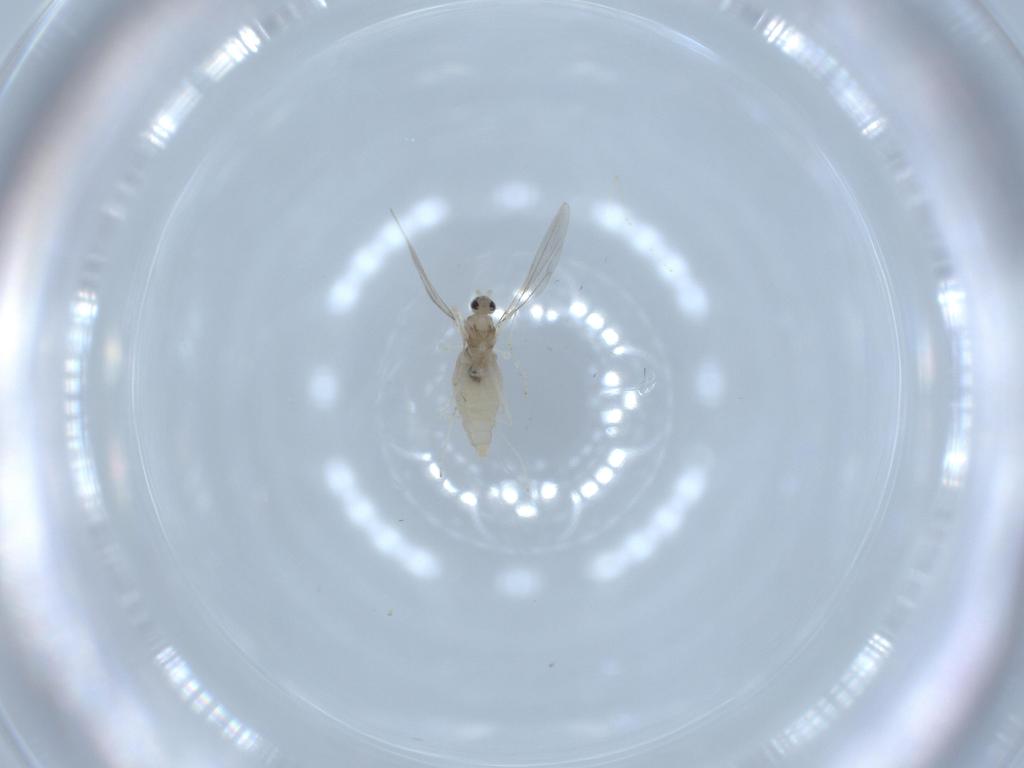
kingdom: Animalia
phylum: Arthropoda
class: Insecta
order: Diptera
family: Cecidomyiidae
